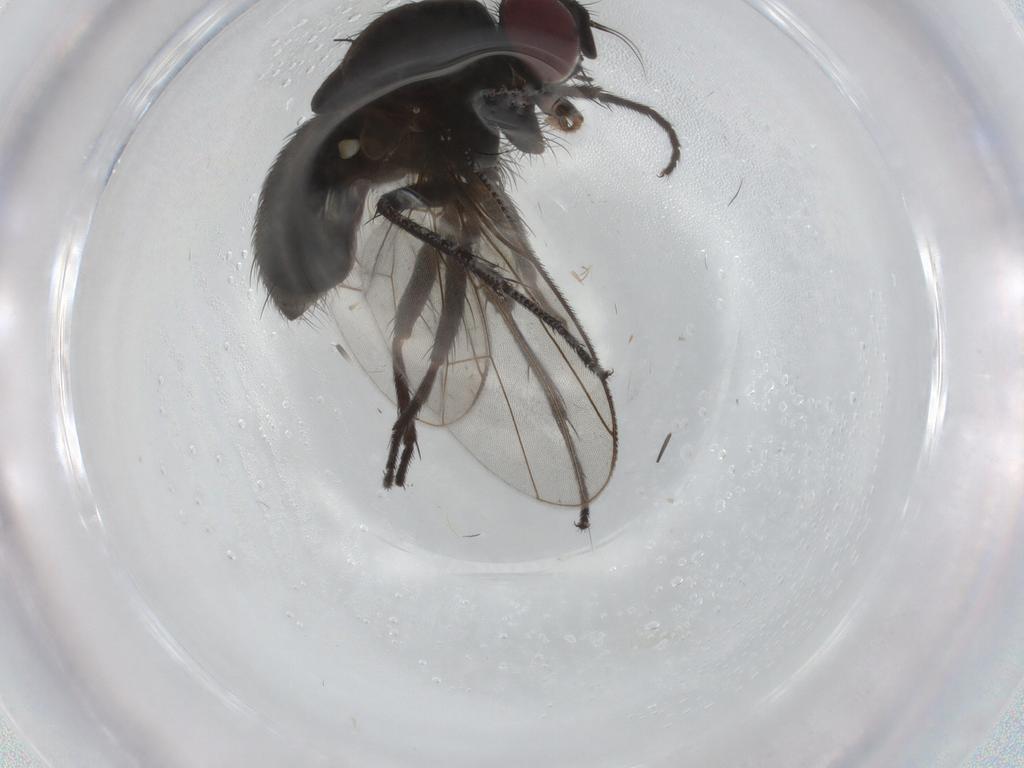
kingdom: Animalia
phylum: Arthropoda
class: Insecta
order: Diptera
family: Muscidae
